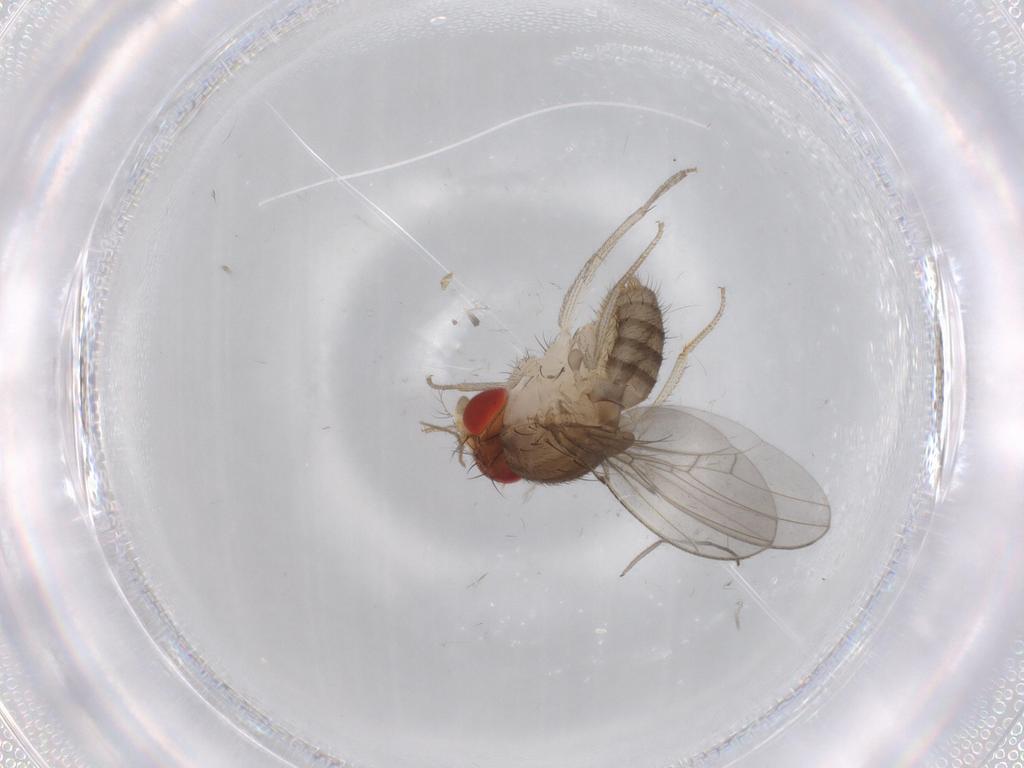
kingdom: Animalia
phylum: Arthropoda
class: Insecta
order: Diptera
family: Drosophilidae
